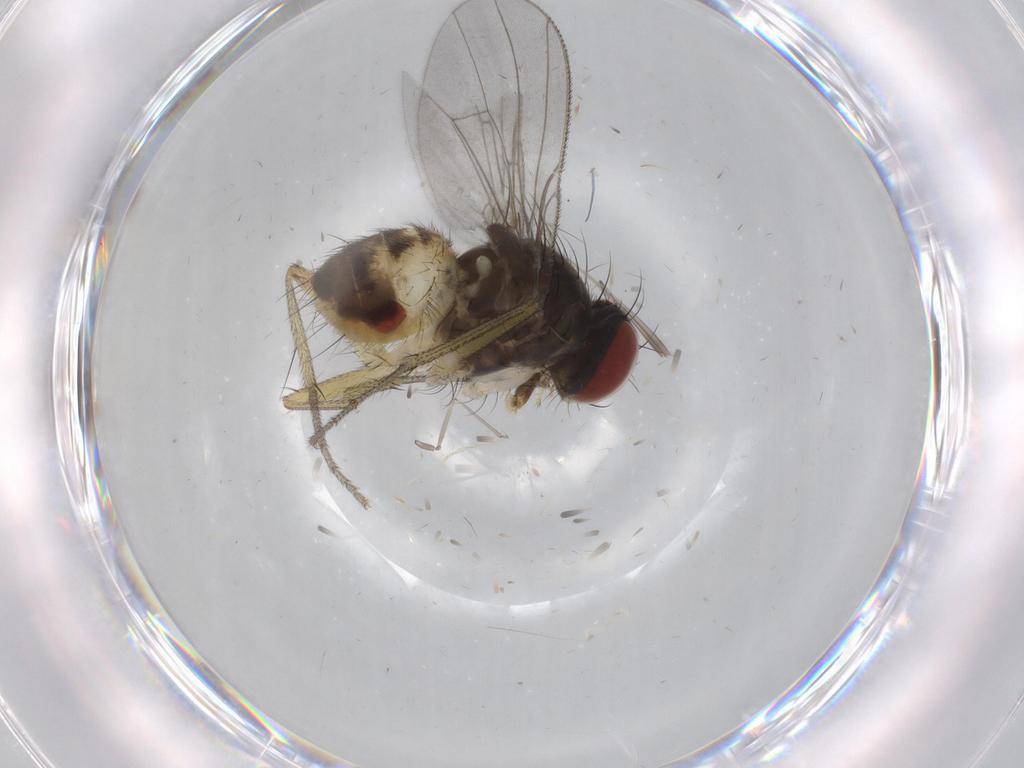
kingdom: Animalia
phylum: Arthropoda
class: Insecta
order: Diptera
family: Muscidae
